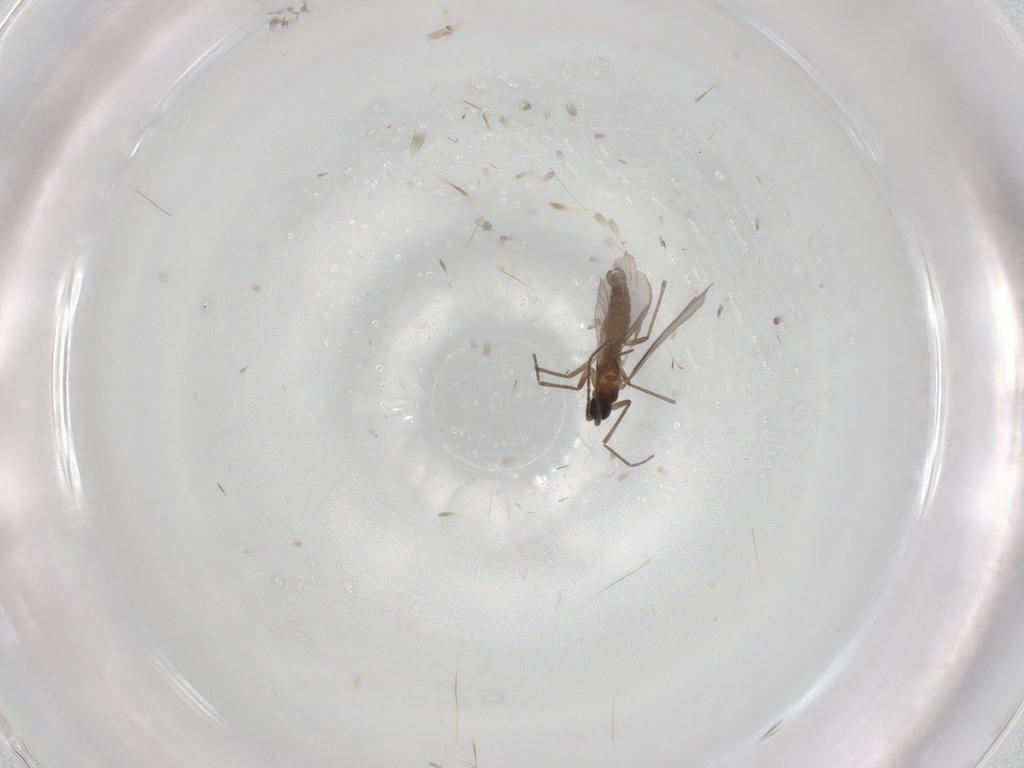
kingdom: Animalia
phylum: Arthropoda
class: Insecta
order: Diptera
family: Sciaridae
